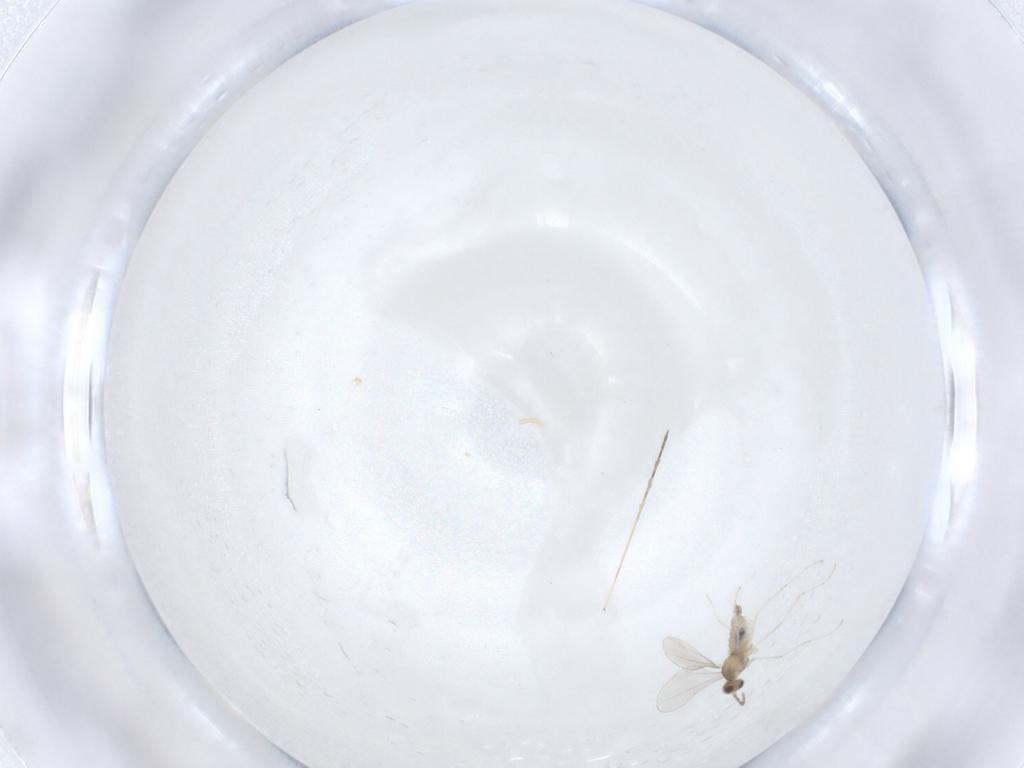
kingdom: Animalia
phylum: Arthropoda
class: Insecta
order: Diptera
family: Cecidomyiidae
